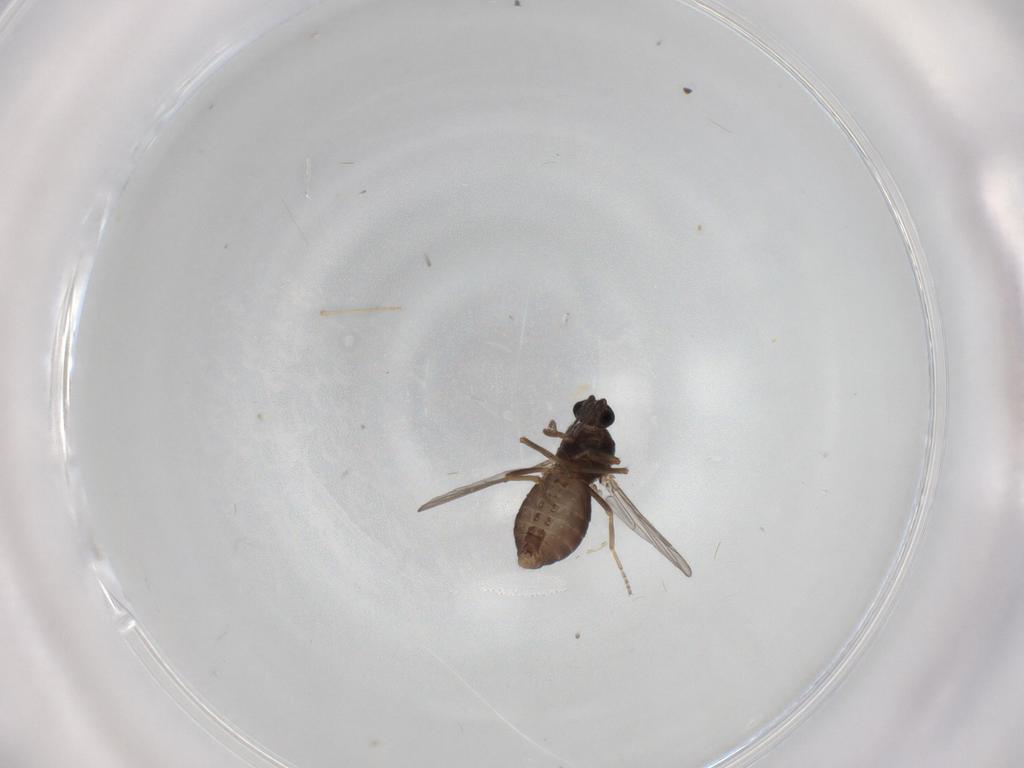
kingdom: Animalia
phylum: Arthropoda
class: Insecta
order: Diptera
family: Ceratopogonidae
